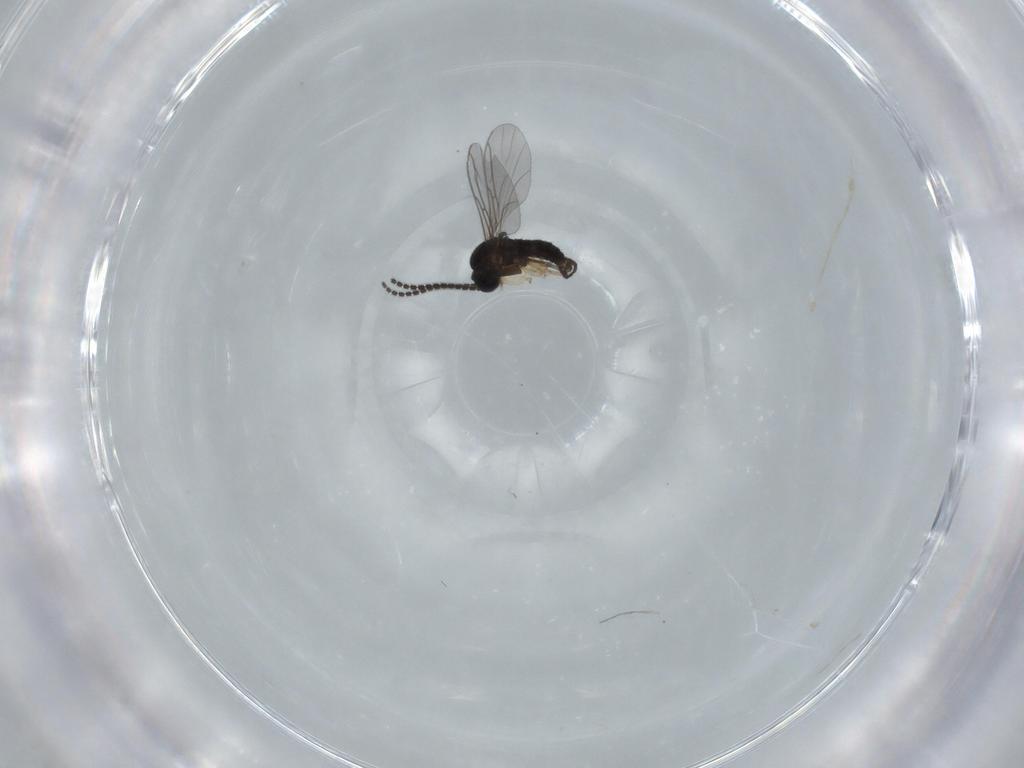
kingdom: Animalia
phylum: Arthropoda
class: Insecta
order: Diptera
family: Sciaridae
